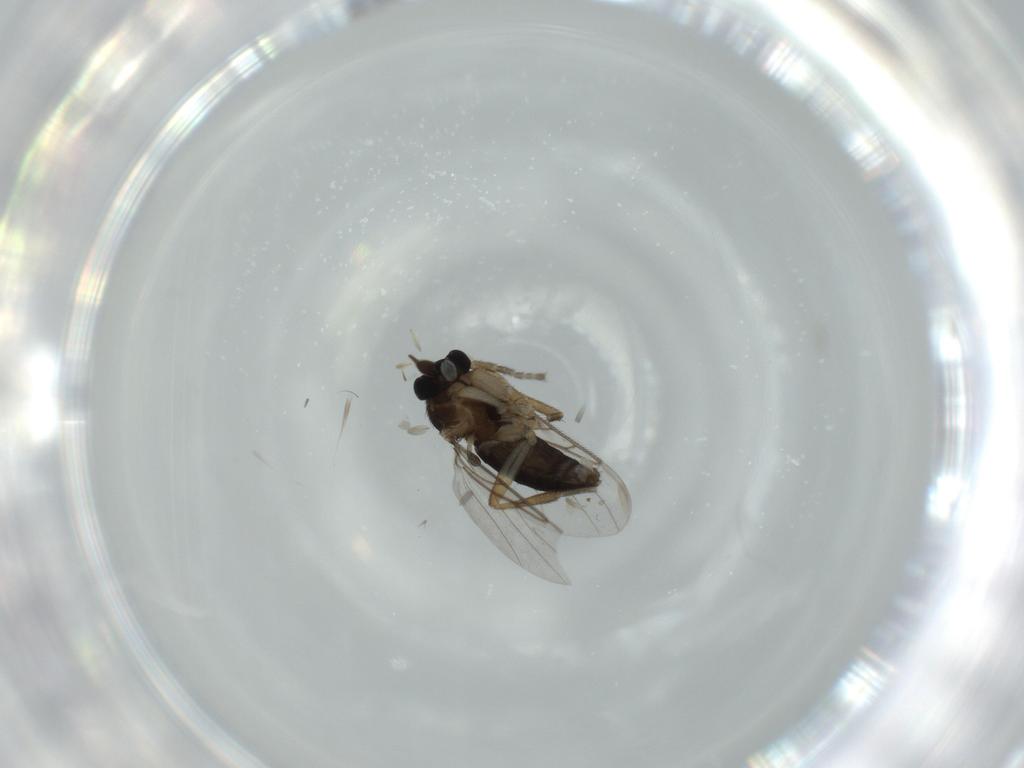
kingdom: Animalia
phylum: Arthropoda
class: Insecta
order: Diptera
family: Phoridae
